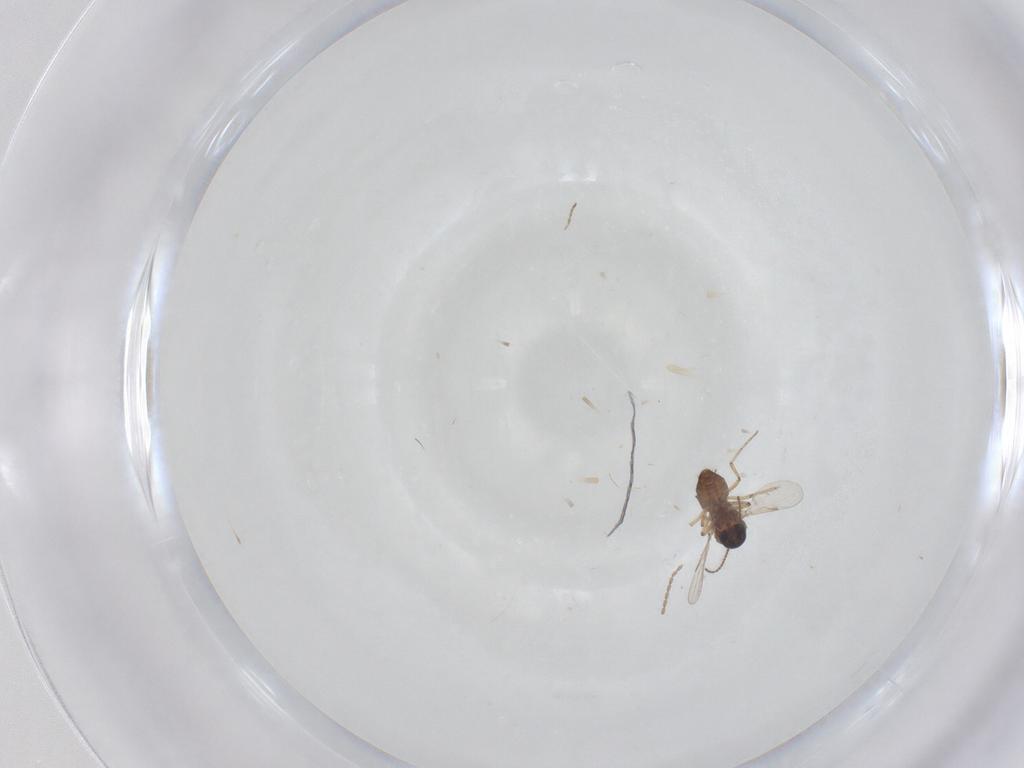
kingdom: Animalia
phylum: Arthropoda
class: Insecta
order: Diptera
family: Ceratopogonidae
